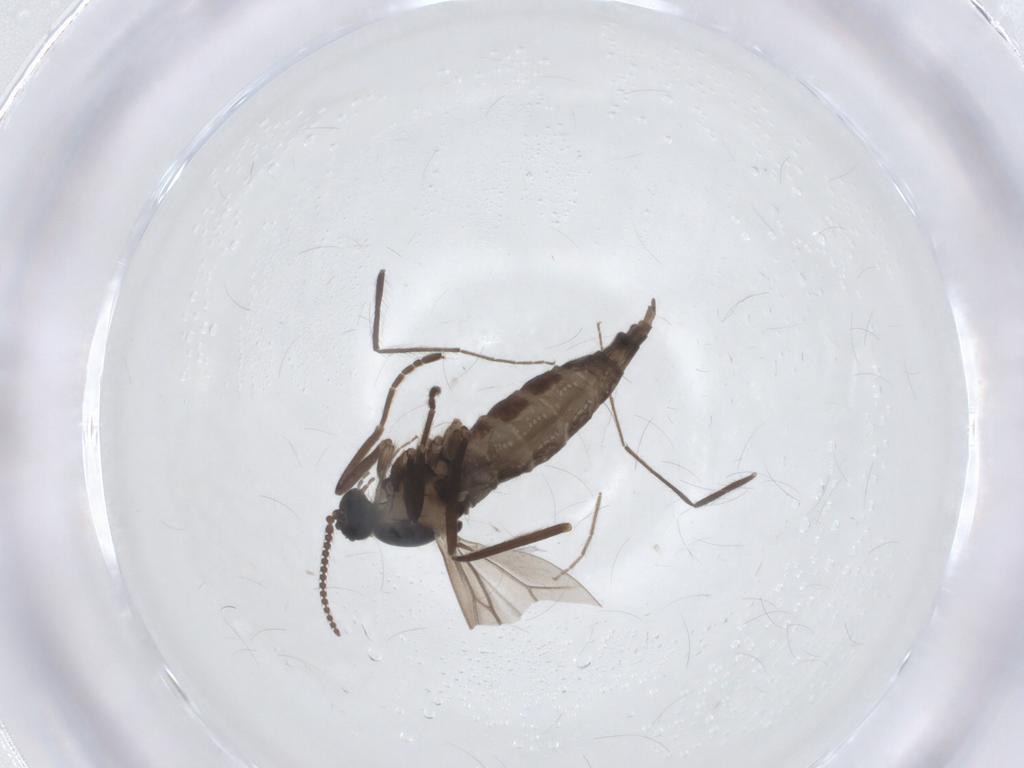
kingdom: Animalia
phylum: Arthropoda
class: Insecta
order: Diptera
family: Cecidomyiidae
